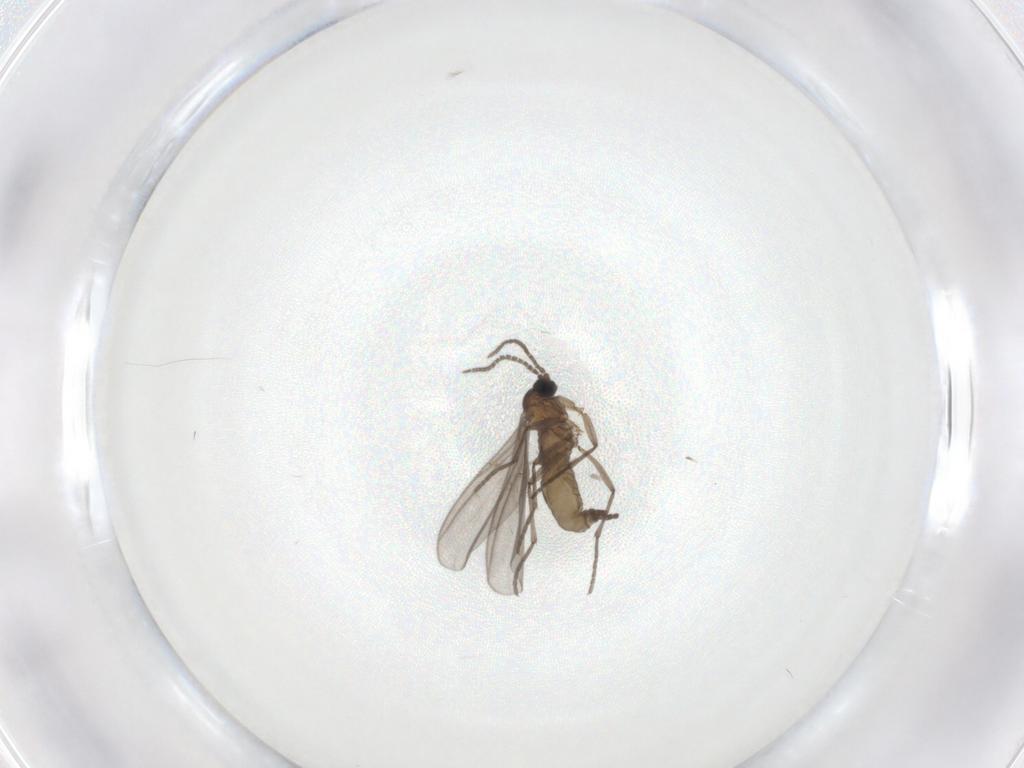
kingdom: Animalia
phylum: Arthropoda
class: Insecta
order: Diptera
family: Sciaridae
